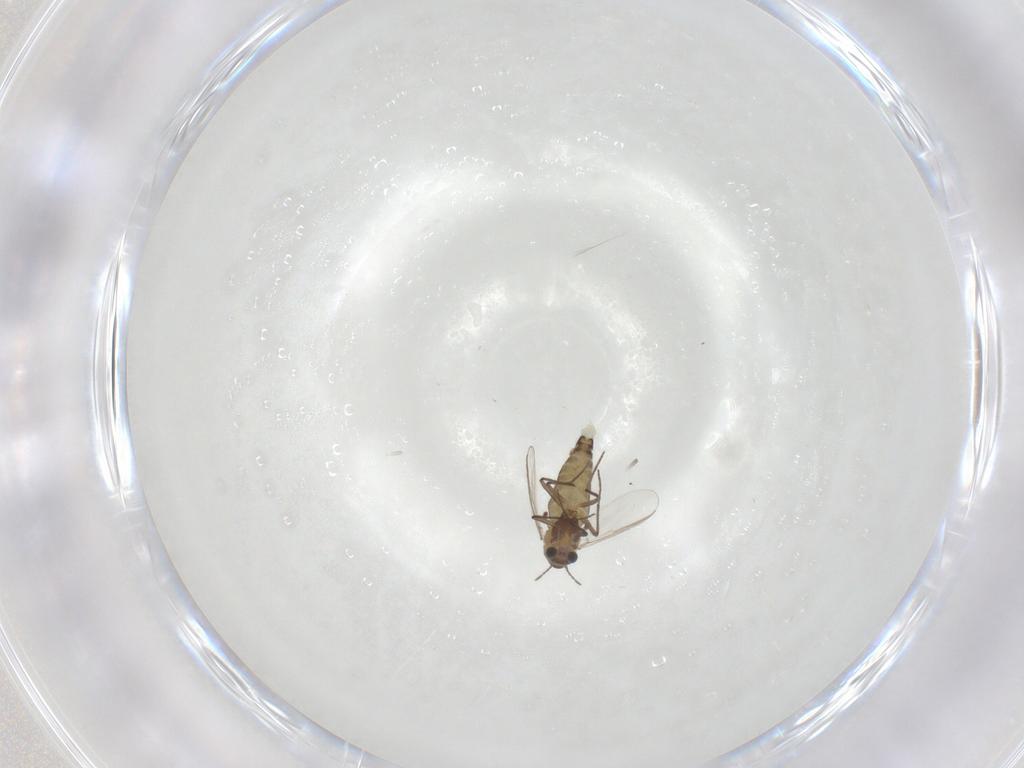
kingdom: Animalia
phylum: Arthropoda
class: Insecta
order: Diptera
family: Chironomidae
